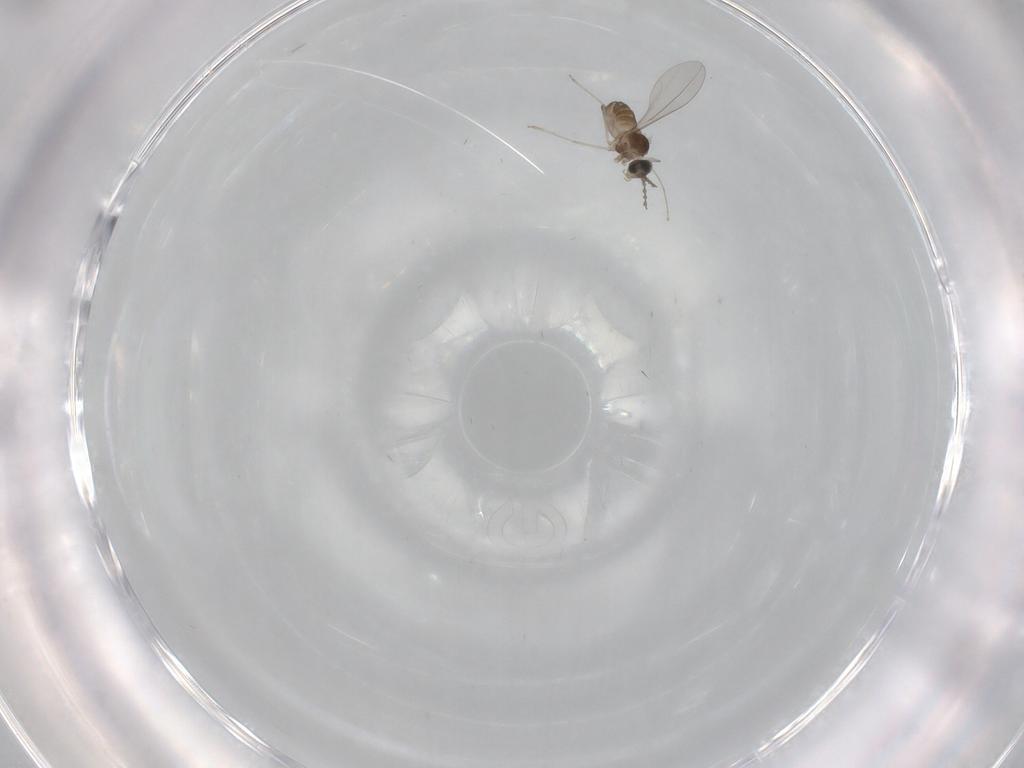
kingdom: Animalia
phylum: Arthropoda
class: Insecta
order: Diptera
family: Cecidomyiidae
